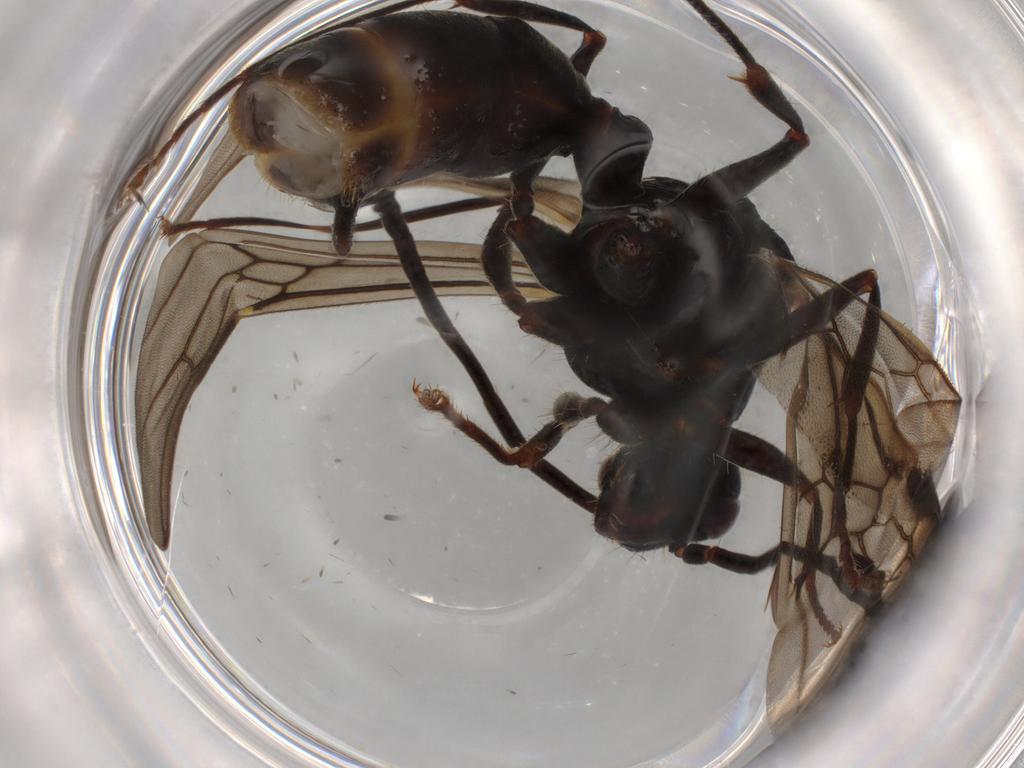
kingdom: Animalia
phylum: Arthropoda
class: Insecta
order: Hymenoptera
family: Formicidae
